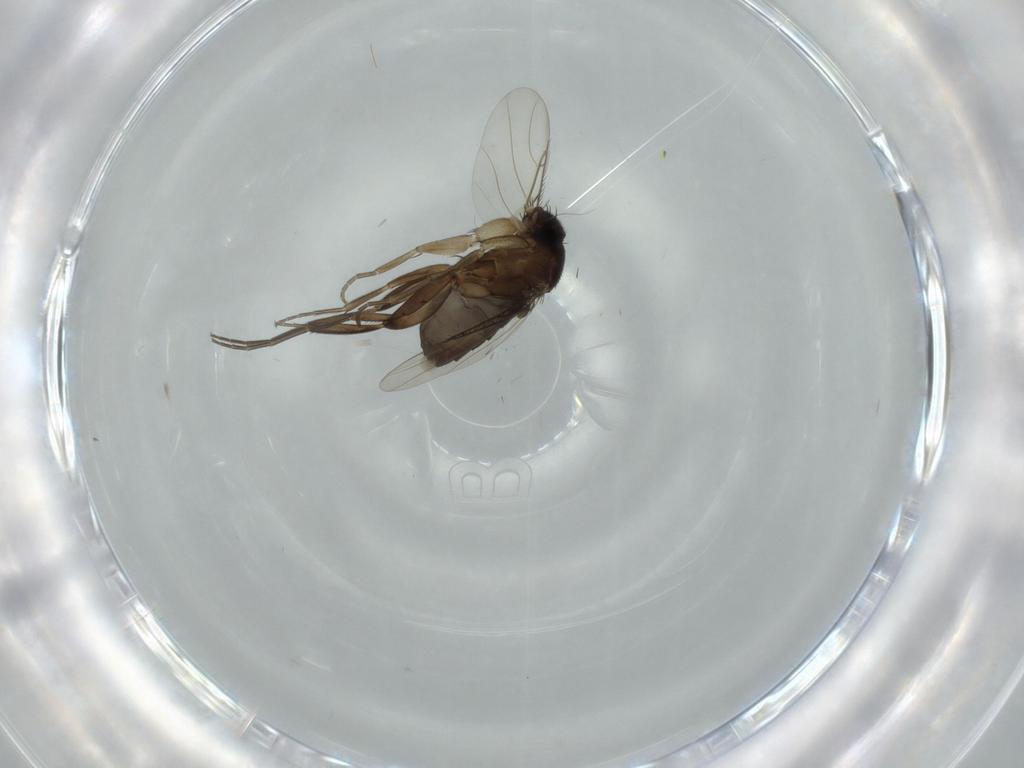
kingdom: Animalia
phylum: Arthropoda
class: Insecta
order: Diptera
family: Phoridae
